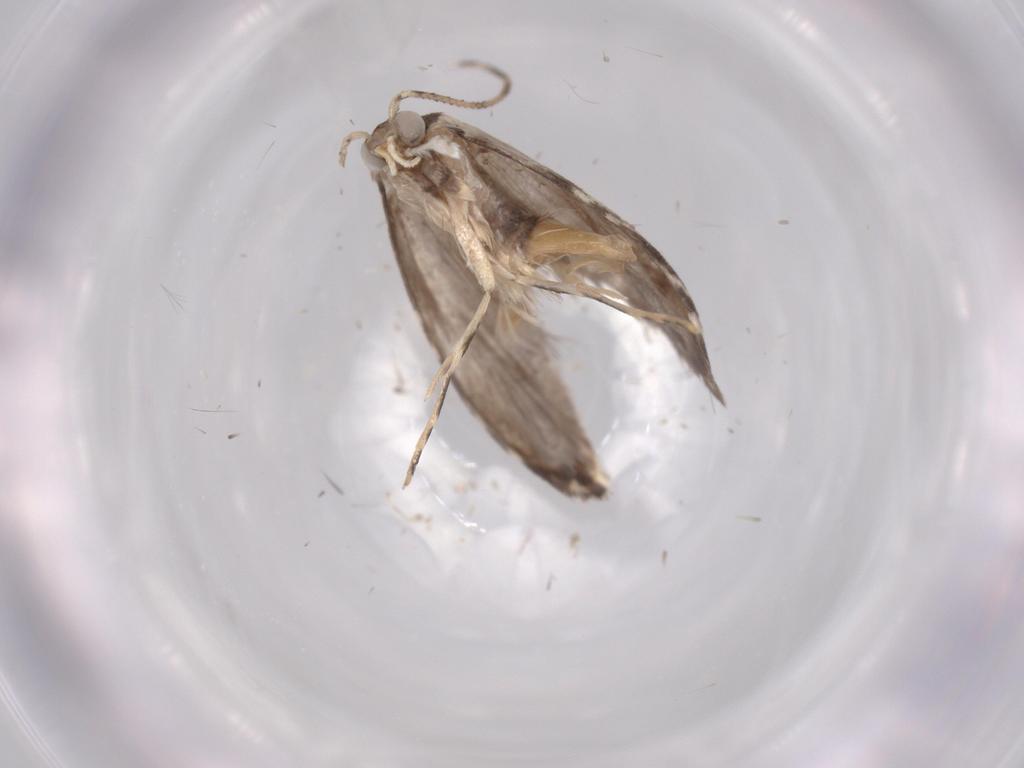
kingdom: Animalia
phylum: Arthropoda
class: Insecta
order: Lepidoptera
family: Tineidae
